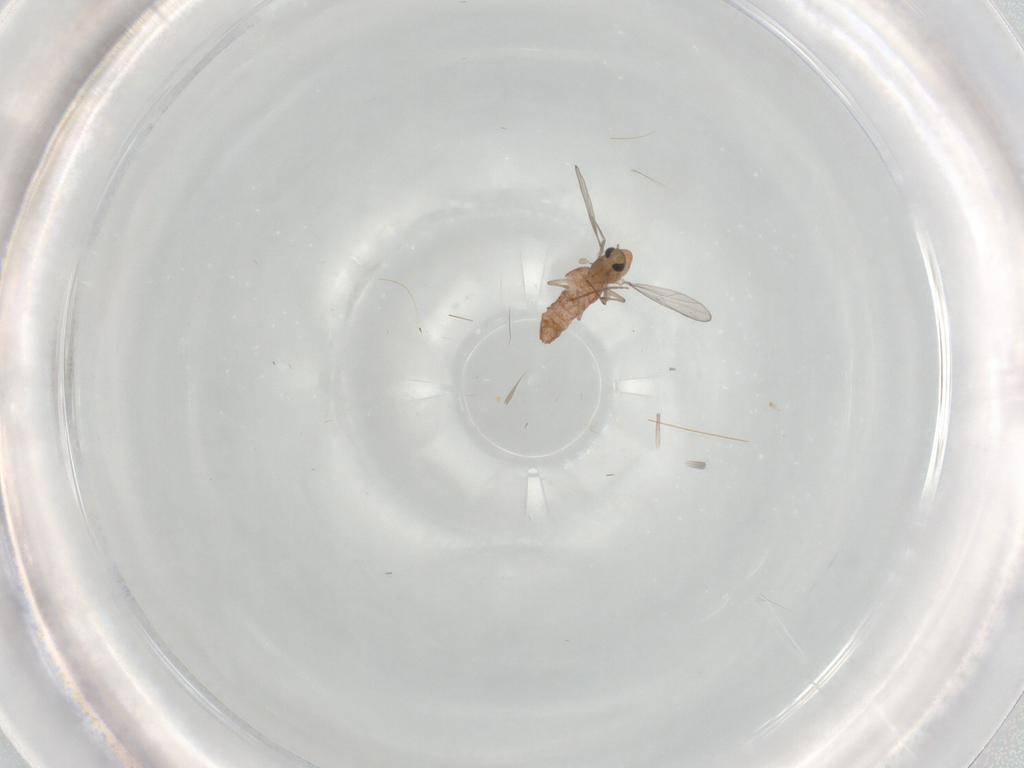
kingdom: Animalia
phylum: Arthropoda
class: Insecta
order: Diptera
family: Chironomidae
